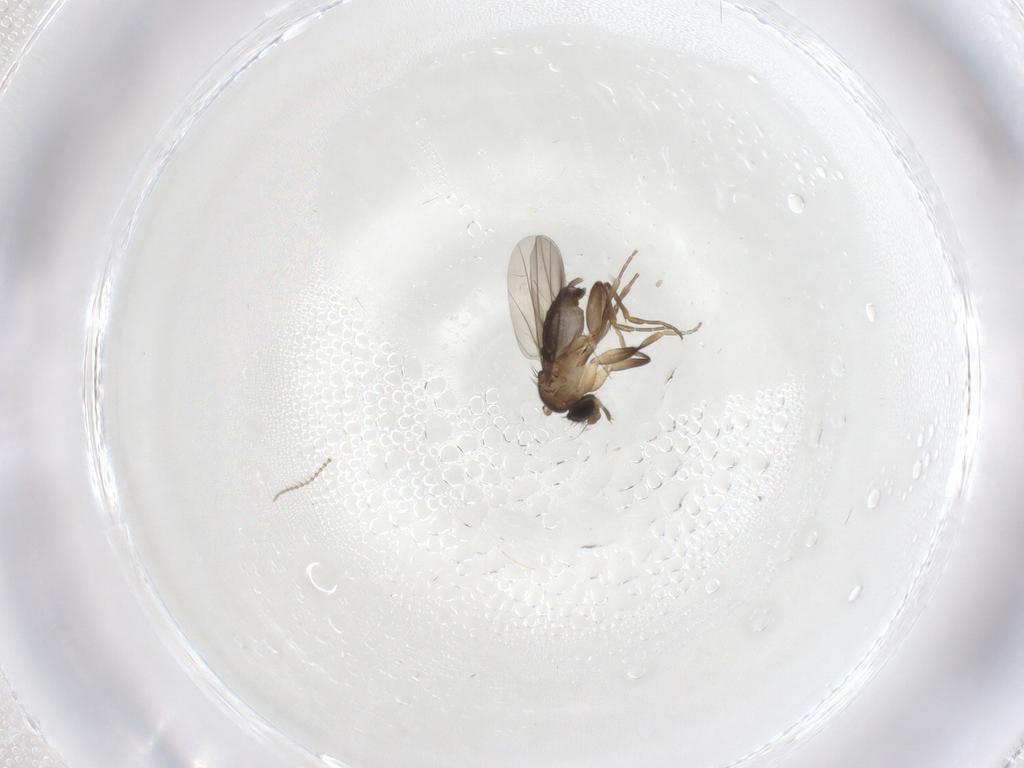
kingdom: Animalia
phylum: Arthropoda
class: Insecta
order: Diptera
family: Ceratopogonidae
